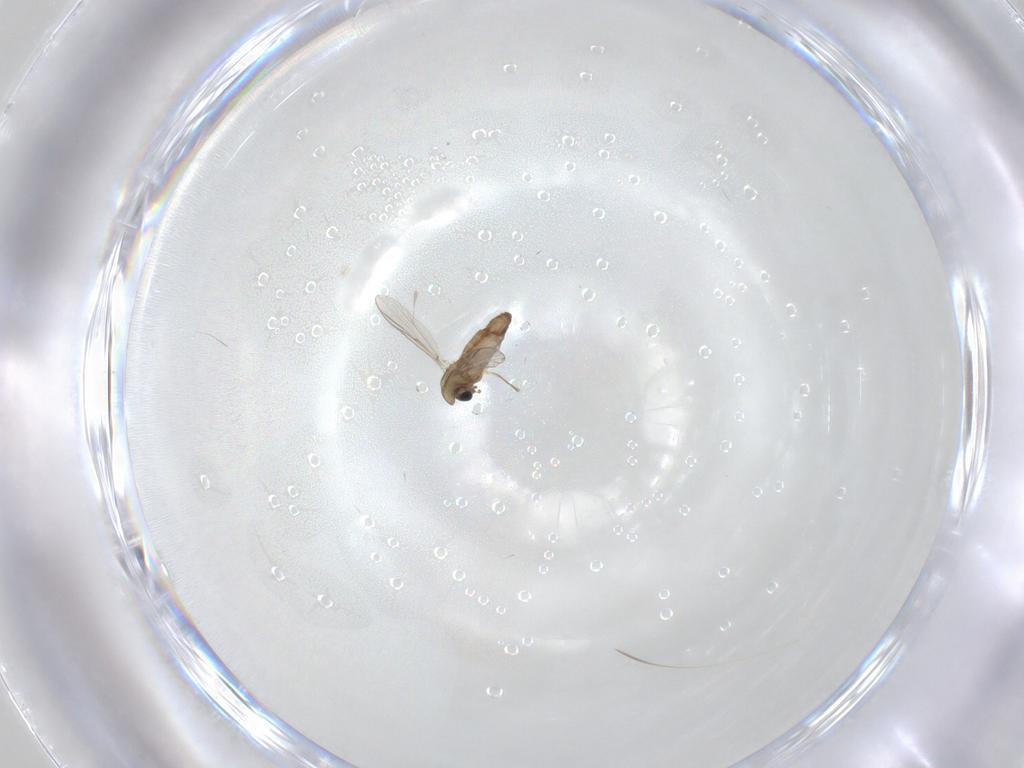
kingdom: Animalia
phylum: Arthropoda
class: Insecta
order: Diptera
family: Chironomidae
